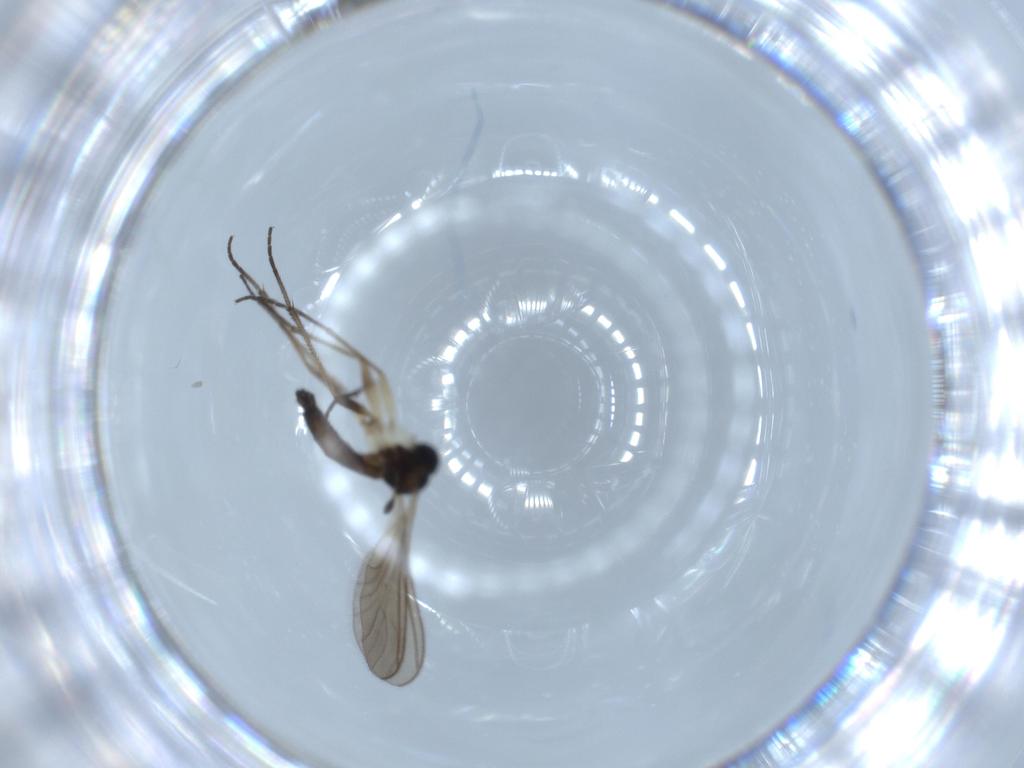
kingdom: Animalia
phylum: Arthropoda
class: Insecta
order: Diptera
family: Sciaridae
